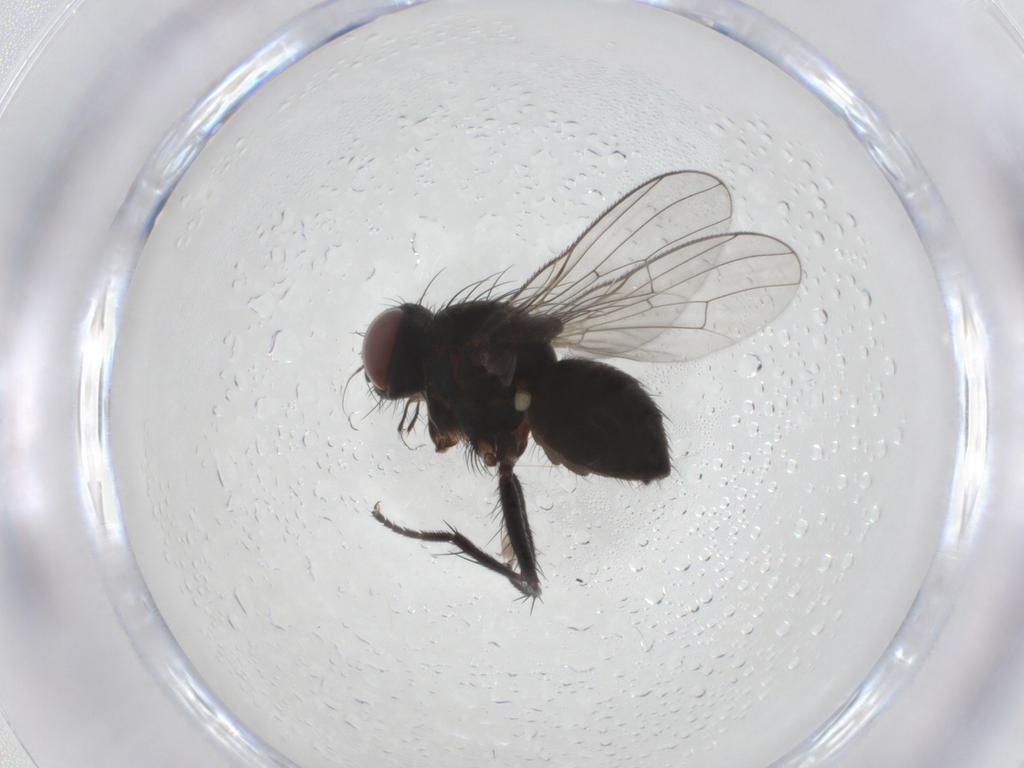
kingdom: Animalia
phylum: Arthropoda
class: Insecta
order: Diptera
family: Muscidae
